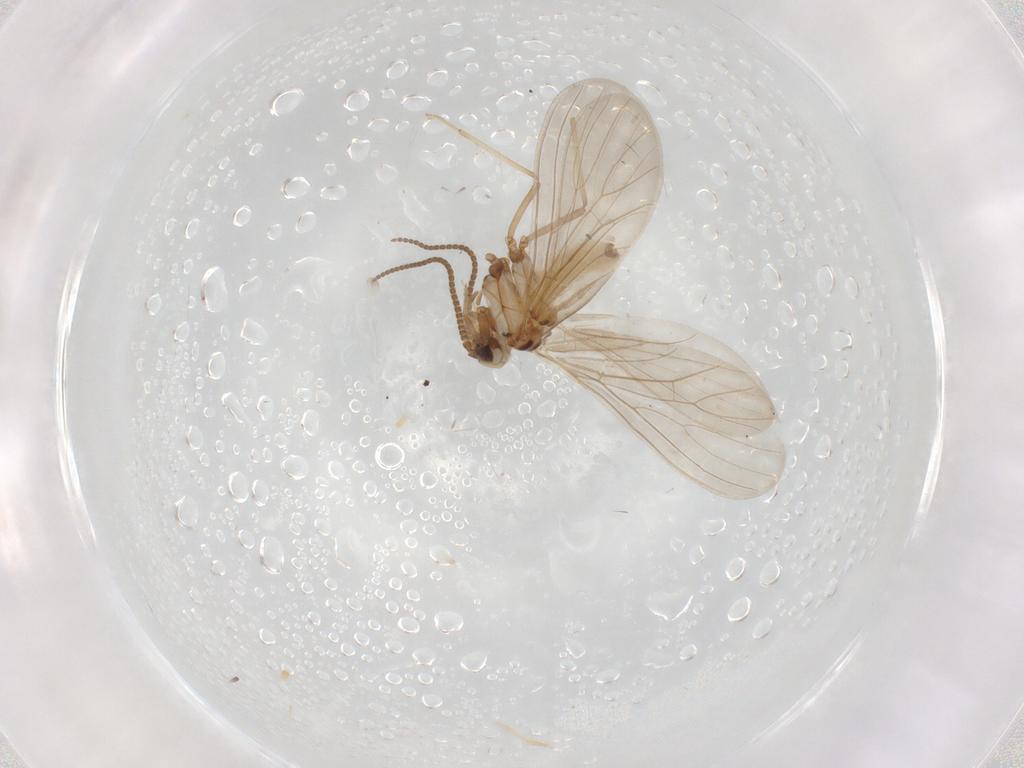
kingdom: Animalia
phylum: Arthropoda
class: Insecta
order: Neuroptera
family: Coniopterygidae
